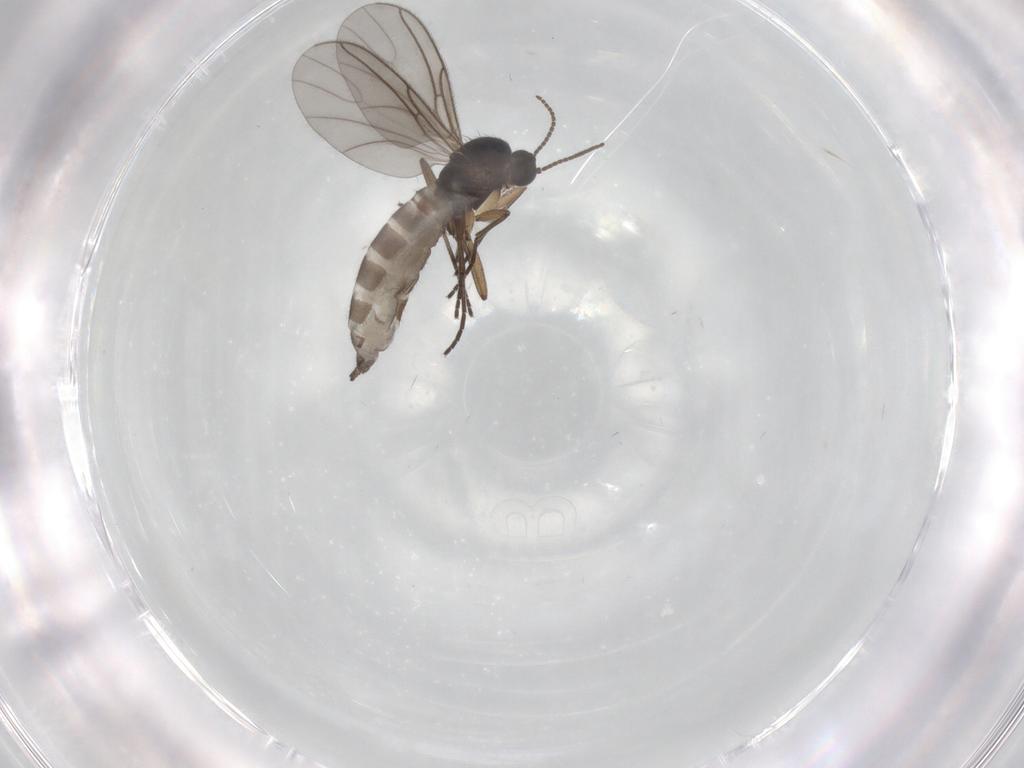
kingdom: Animalia
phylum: Arthropoda
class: Insecta
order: Diptera
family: Sciaridae
